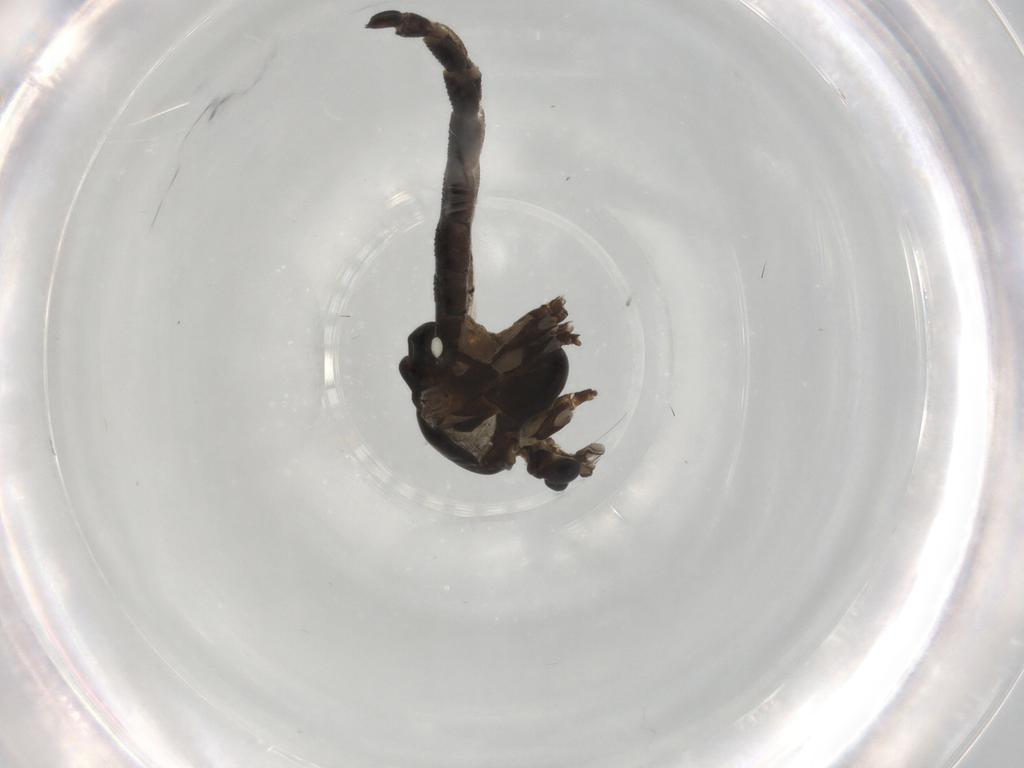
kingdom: Animalia
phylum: Arthropoda
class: Insecta
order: Diptera
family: Chironomidae
